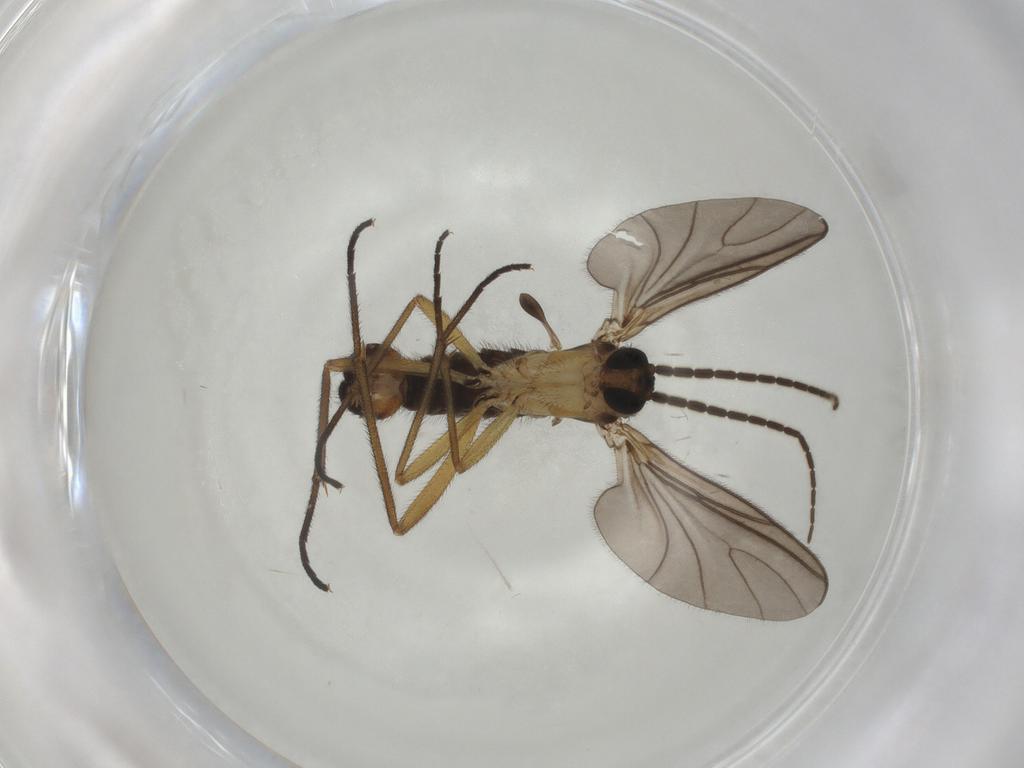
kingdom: Animalia
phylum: Arthropoda
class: Insecta
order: Diptera
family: Sciaridae
